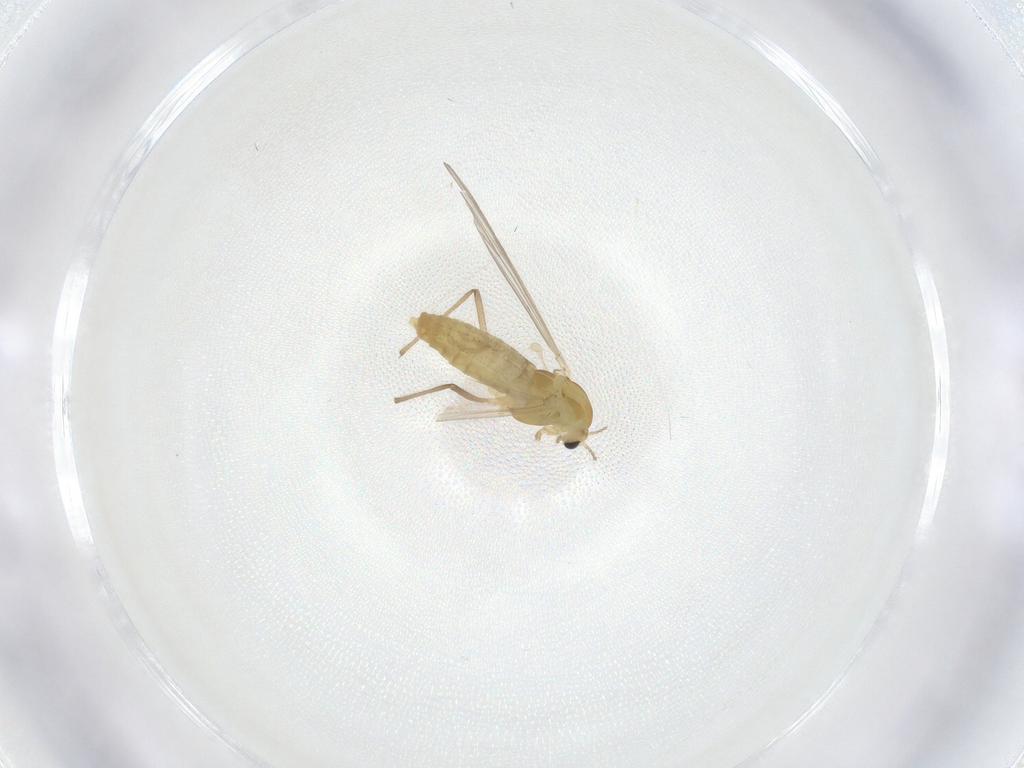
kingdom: Animalia
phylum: Arthropoda
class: Insecta
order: Diptera
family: Chironomidae
